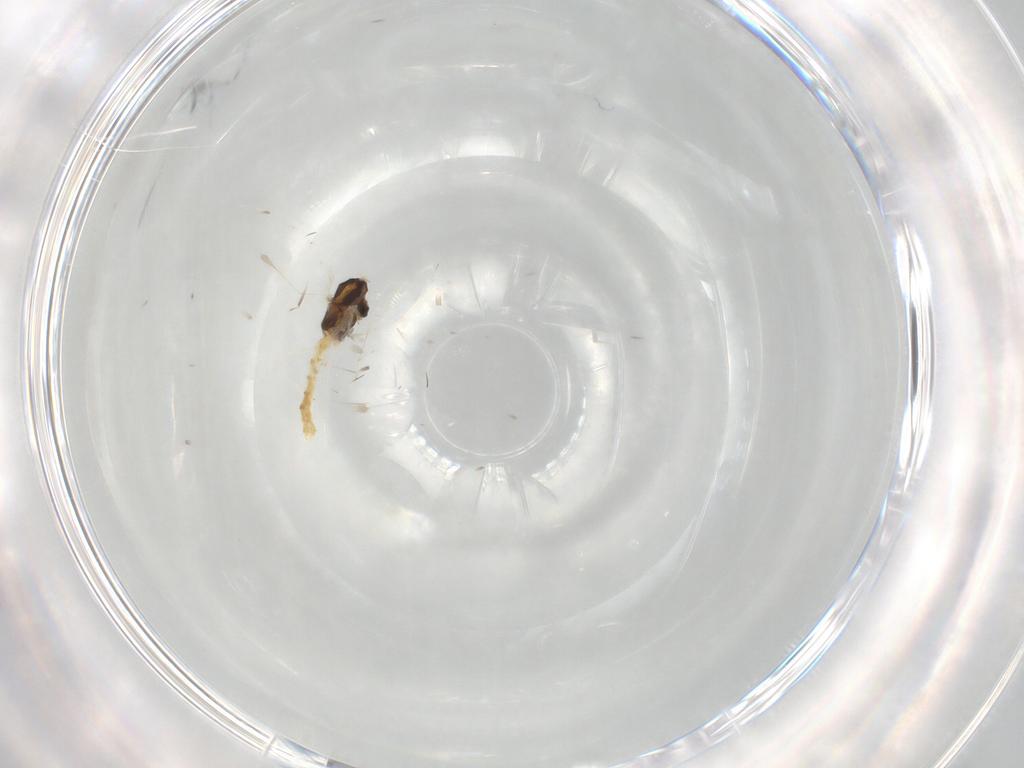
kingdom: Animalia
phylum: Arthropoda
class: Insecta
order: Diptera
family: Chironomidae
